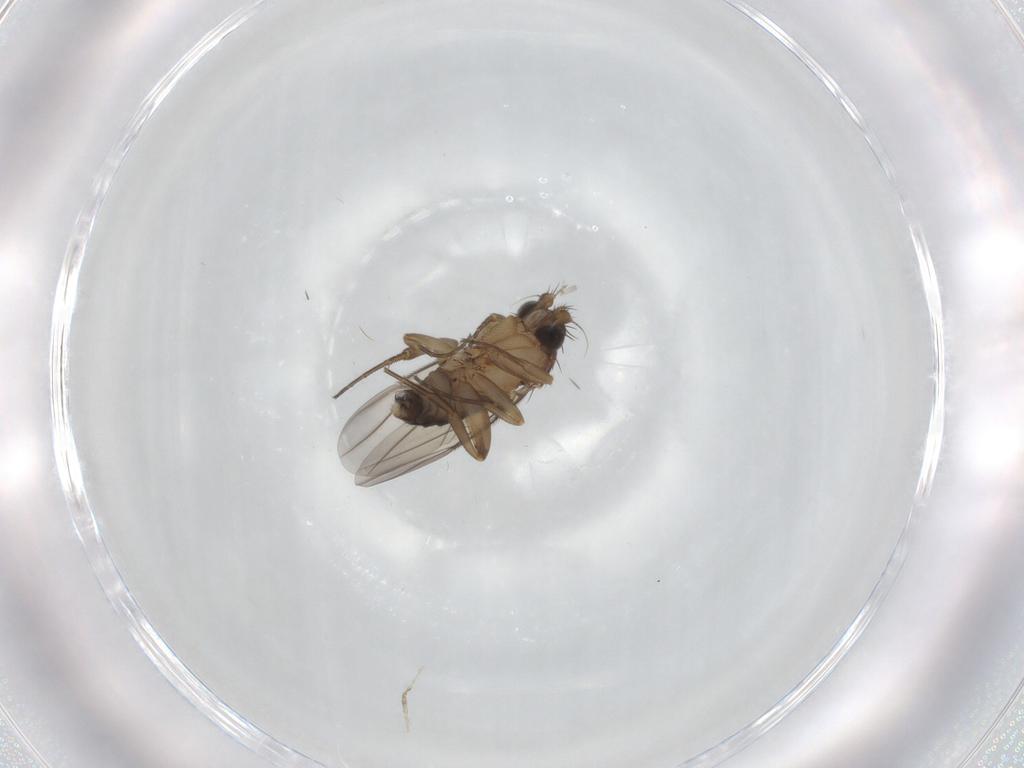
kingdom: Animalia
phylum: Arthropoda
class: Insecta
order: Diptera
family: Phoridae
